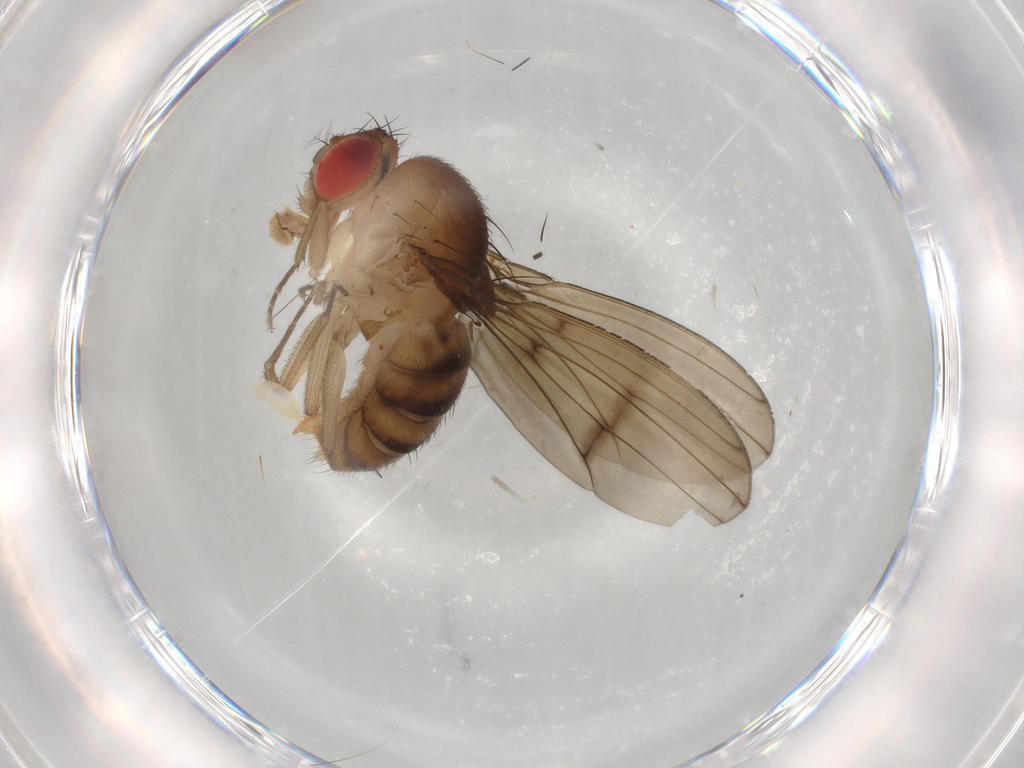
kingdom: Animalia
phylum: Arthropoda
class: Insecta
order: Diptera
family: Drosophilidae
